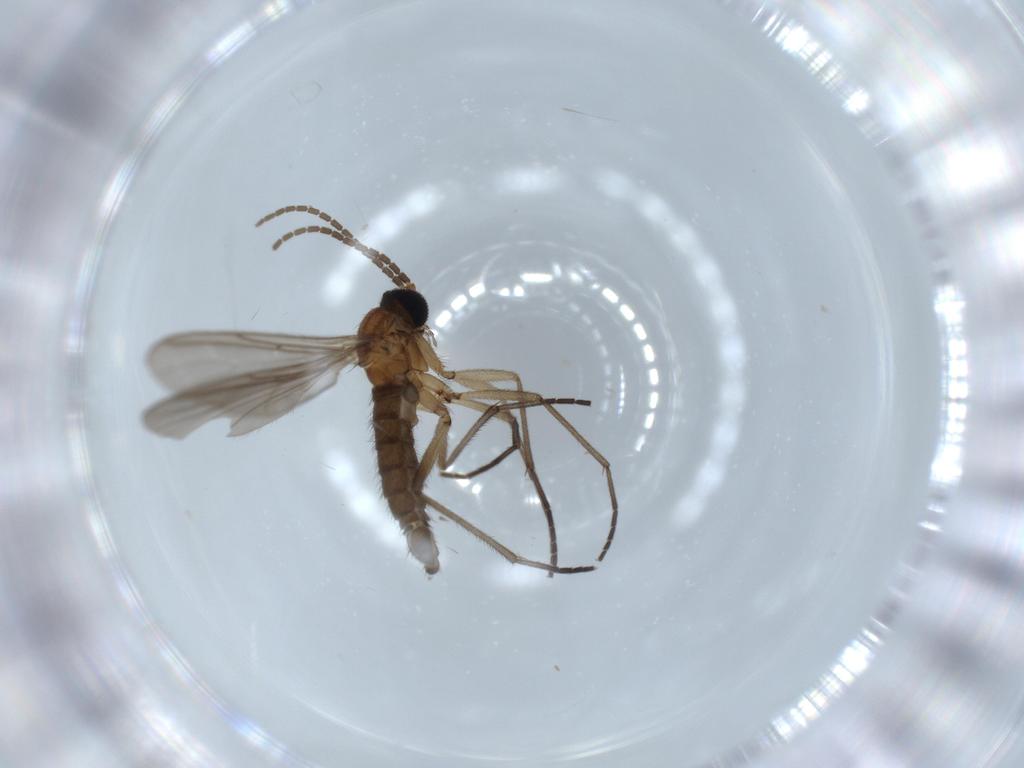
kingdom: Animalia
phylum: Arthropoda
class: Insecta
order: Diptera
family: Sciaridae
